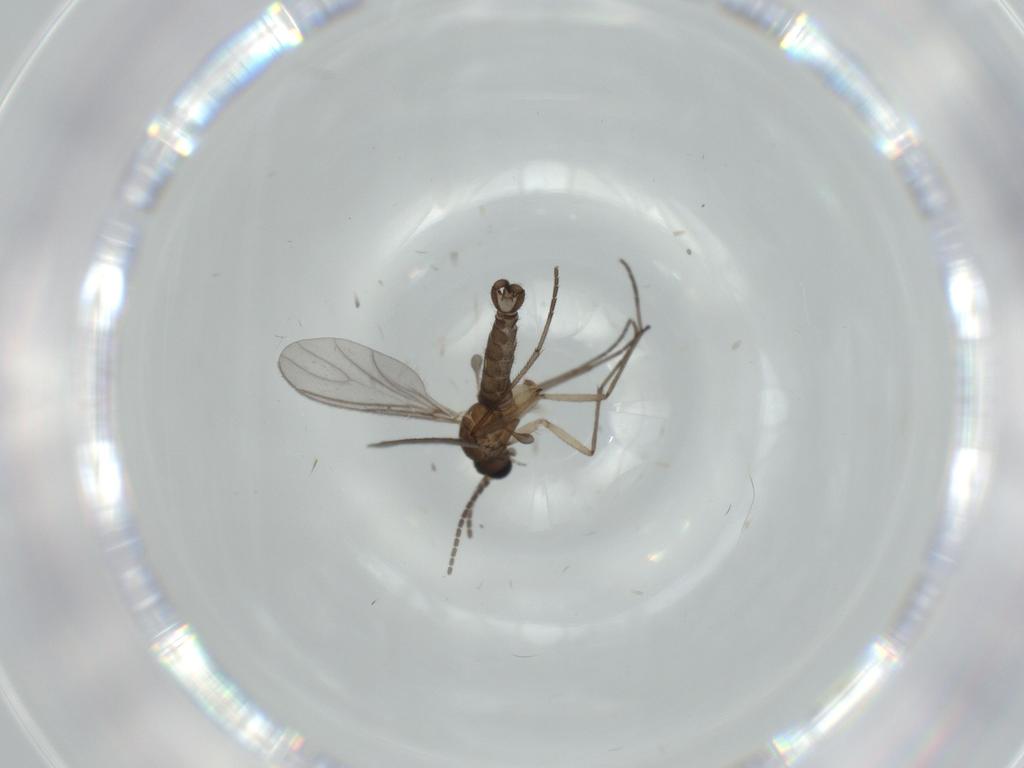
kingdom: Animalia
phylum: Arthropoda
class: Insecta
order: Diptera
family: Sciaridae
